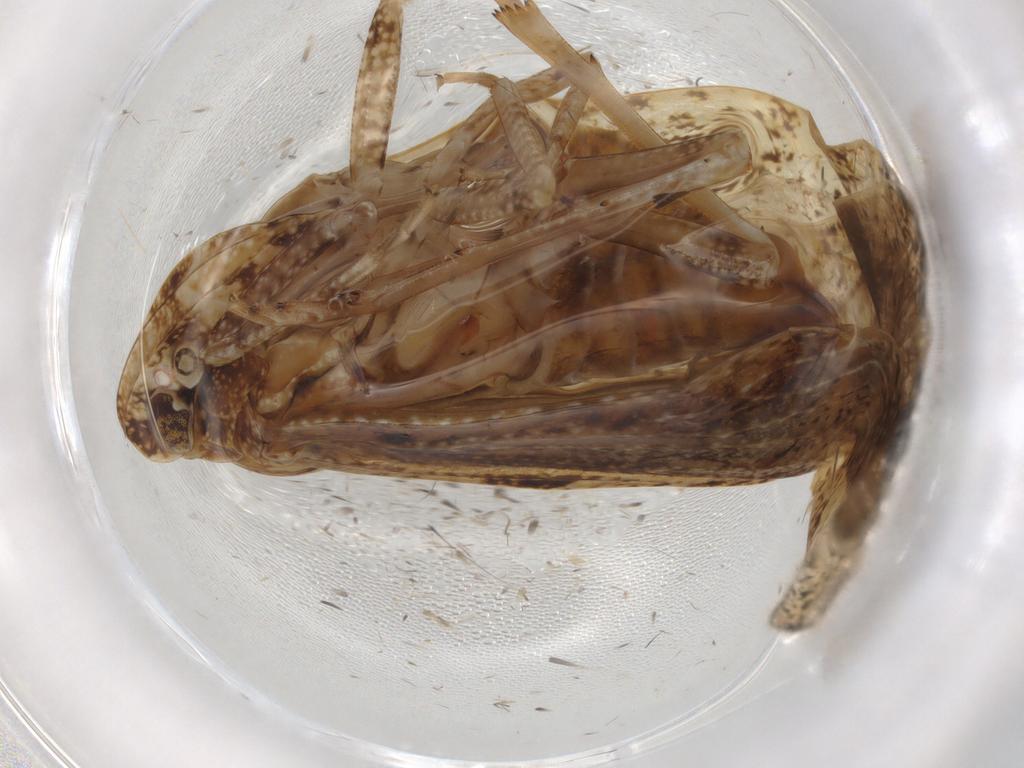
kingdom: Animalia
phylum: Arthropoda
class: Insecta
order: Hemiptera
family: Achilidae
